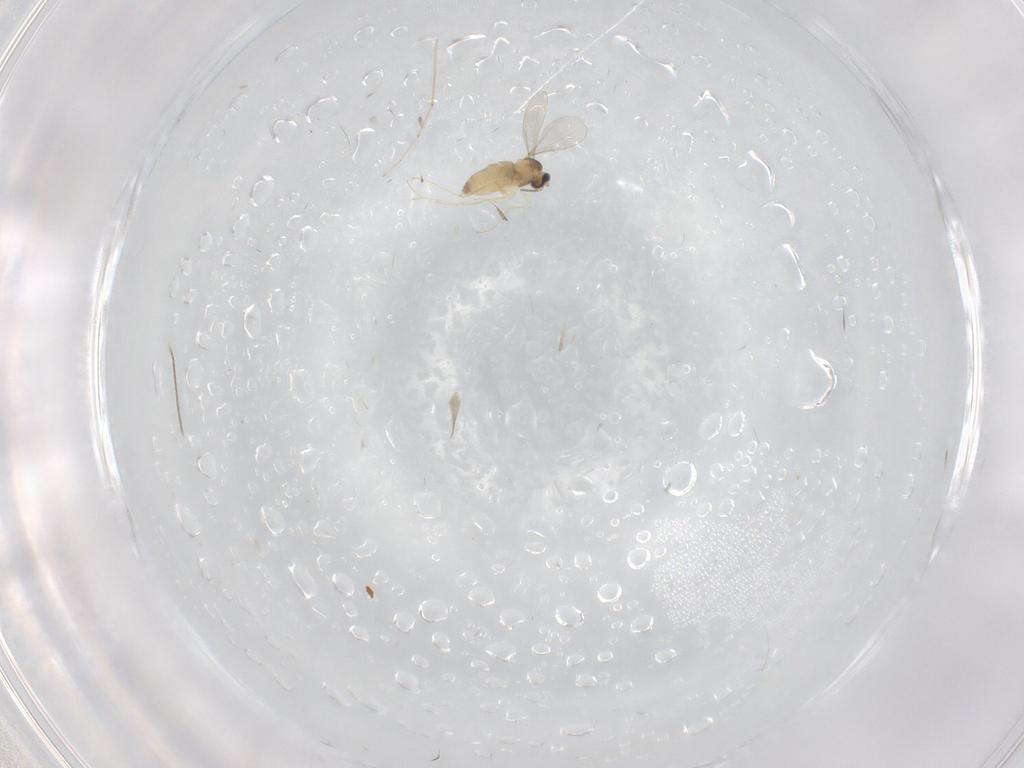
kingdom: Animalia
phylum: Arthropoda
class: Insecta
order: Diptera
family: Cecidomyiidae
